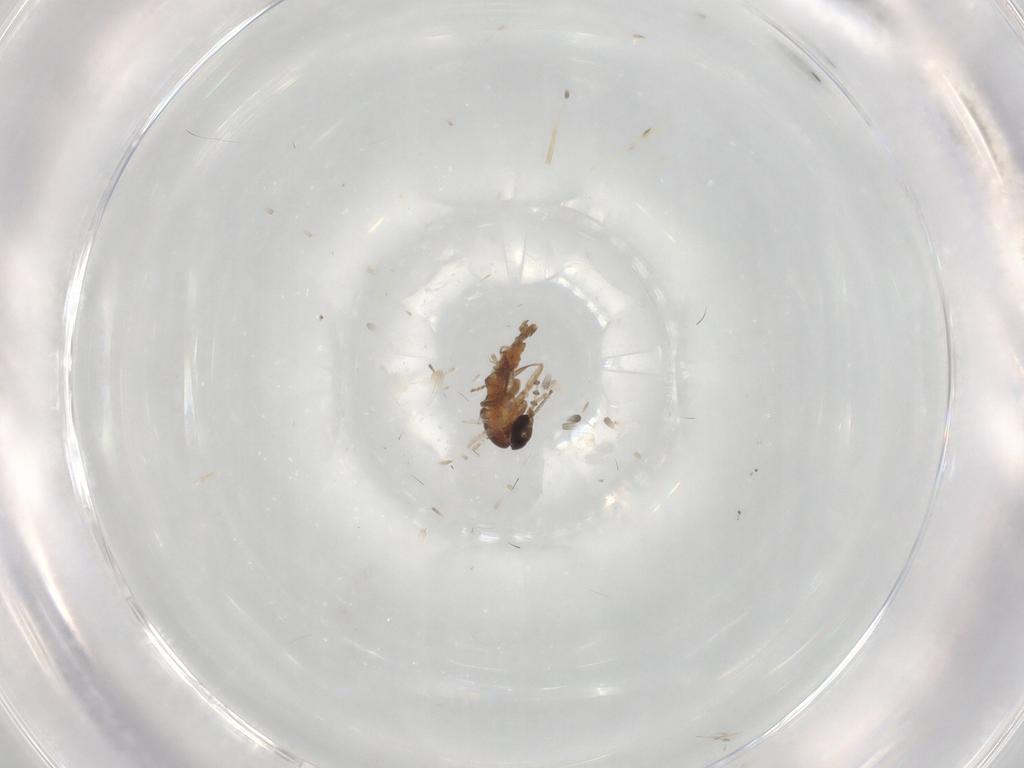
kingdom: Animalia
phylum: Arthropoda
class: Insecta
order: Diptera
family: Psychodidae
